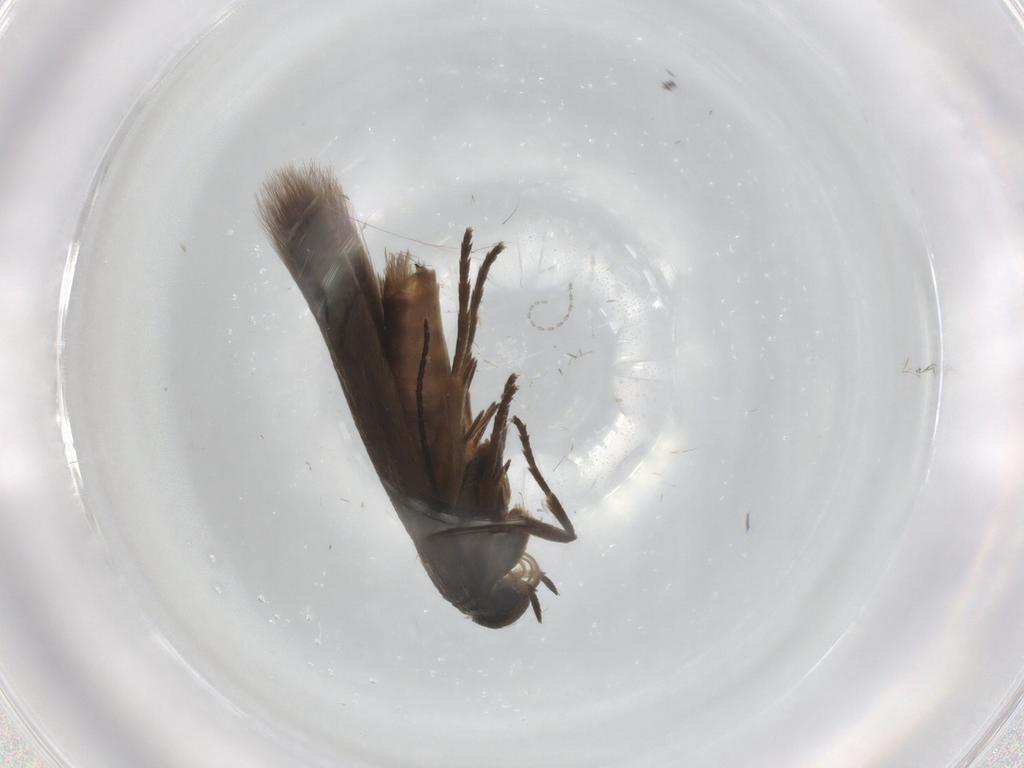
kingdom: Animalia
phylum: Arthropoda
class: Insecta
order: Lepidoptera
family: Scythrididae
